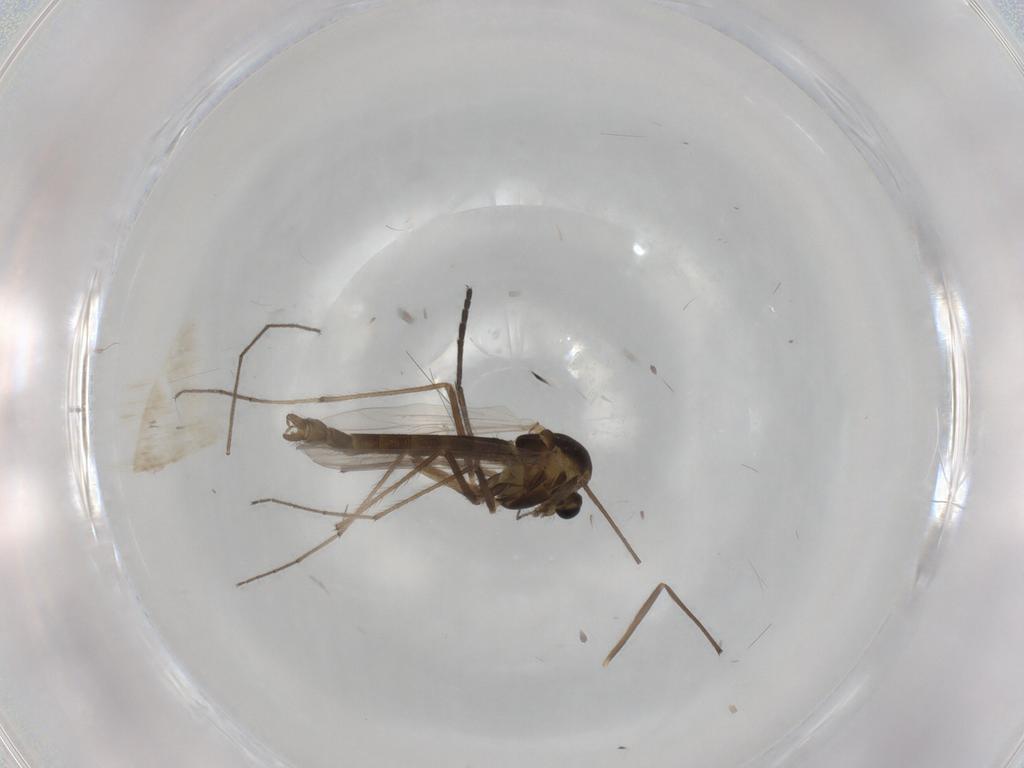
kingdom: Animalia
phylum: Arthropoda
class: Insecta
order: Diptera
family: Chironomidae
